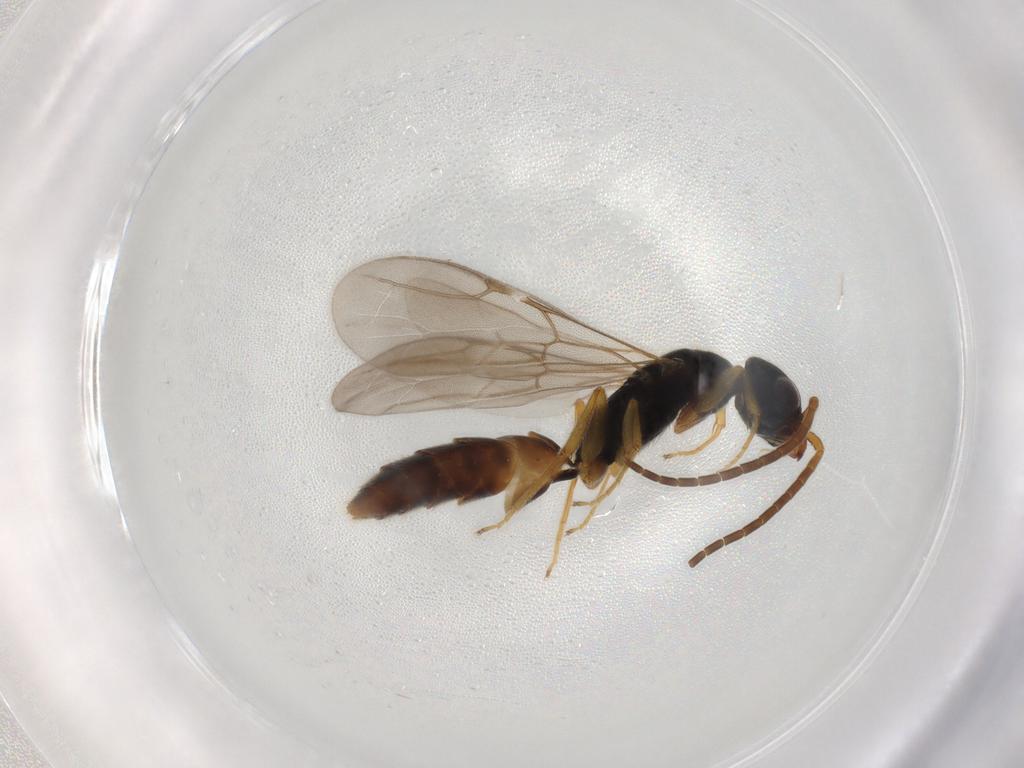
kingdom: Animalia
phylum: Arthropoda
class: Insecta
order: Hymenoptera
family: Bethylidae
